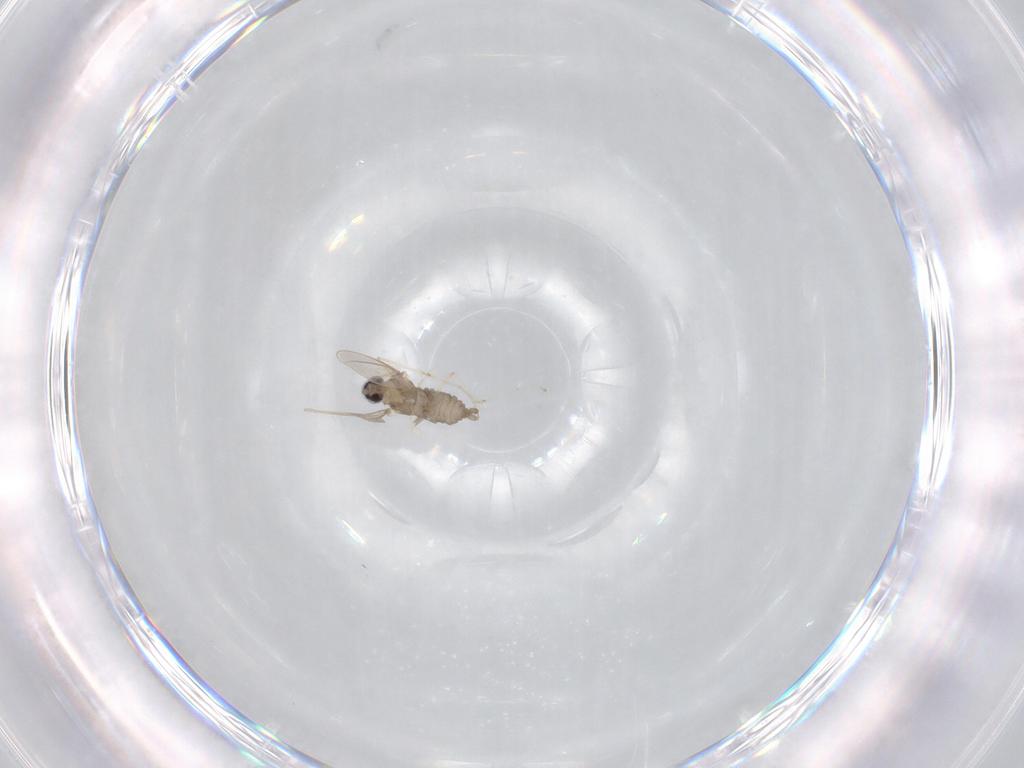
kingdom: Animalia
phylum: Arthropoda
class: Insecta
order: Diptera
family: Cecidomyiidae
